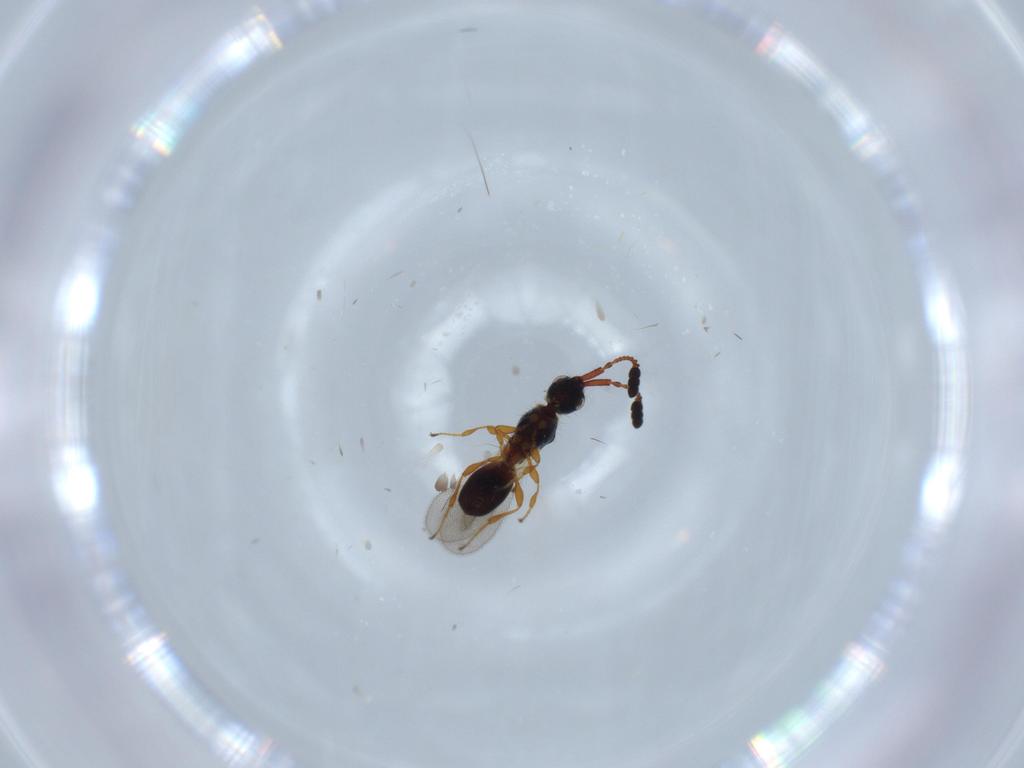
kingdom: Animalia
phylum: Arthropoda
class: Insecta
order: Hymenoptera
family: Diapriidae
